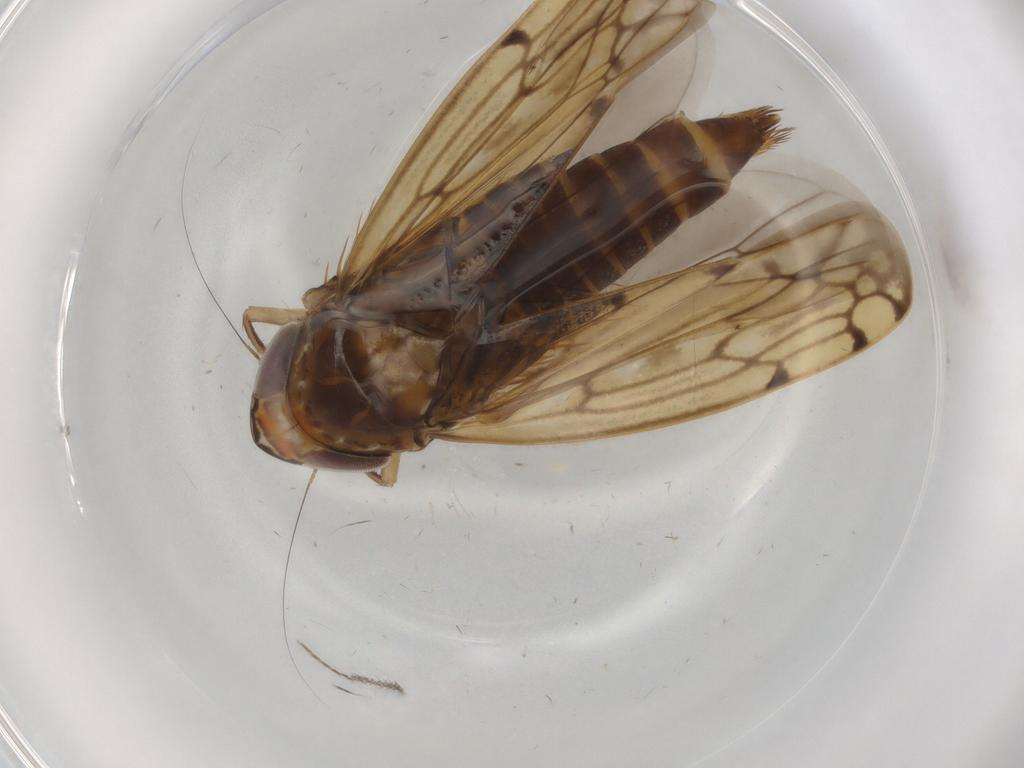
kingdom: Animalia
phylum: Arthropoda
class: Insecta
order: Hemiptera
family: Cicadellidae
